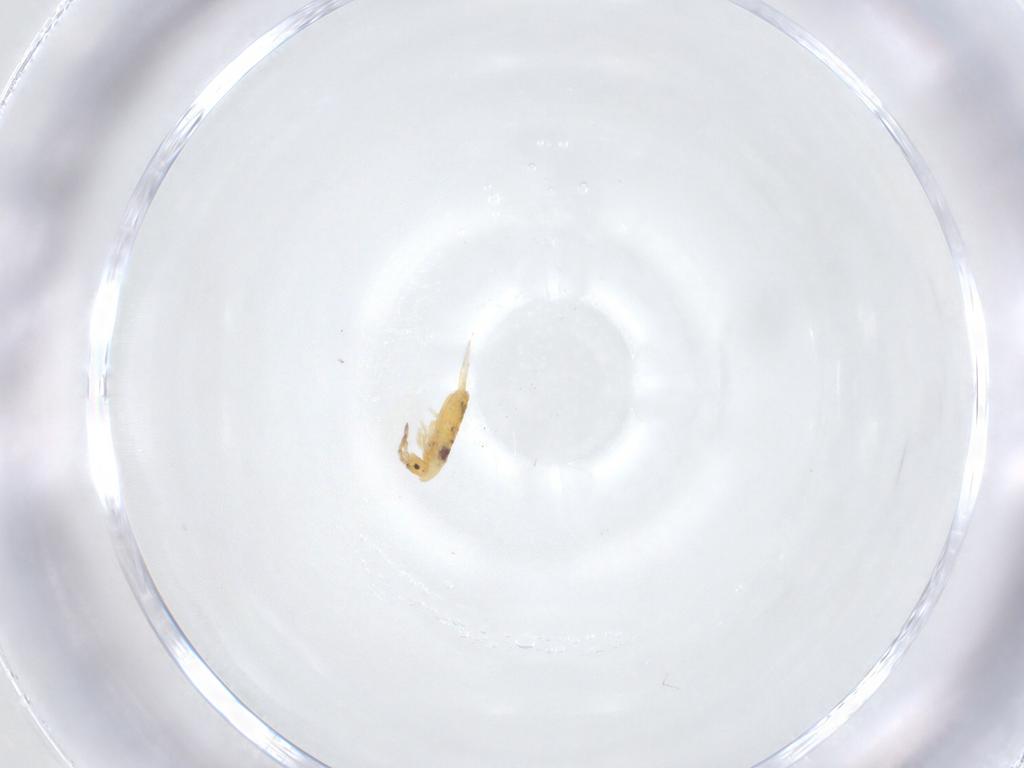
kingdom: Animalia
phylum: Arthropoda
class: Collembola
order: Entomobryomorpha
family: Entomobryidae
